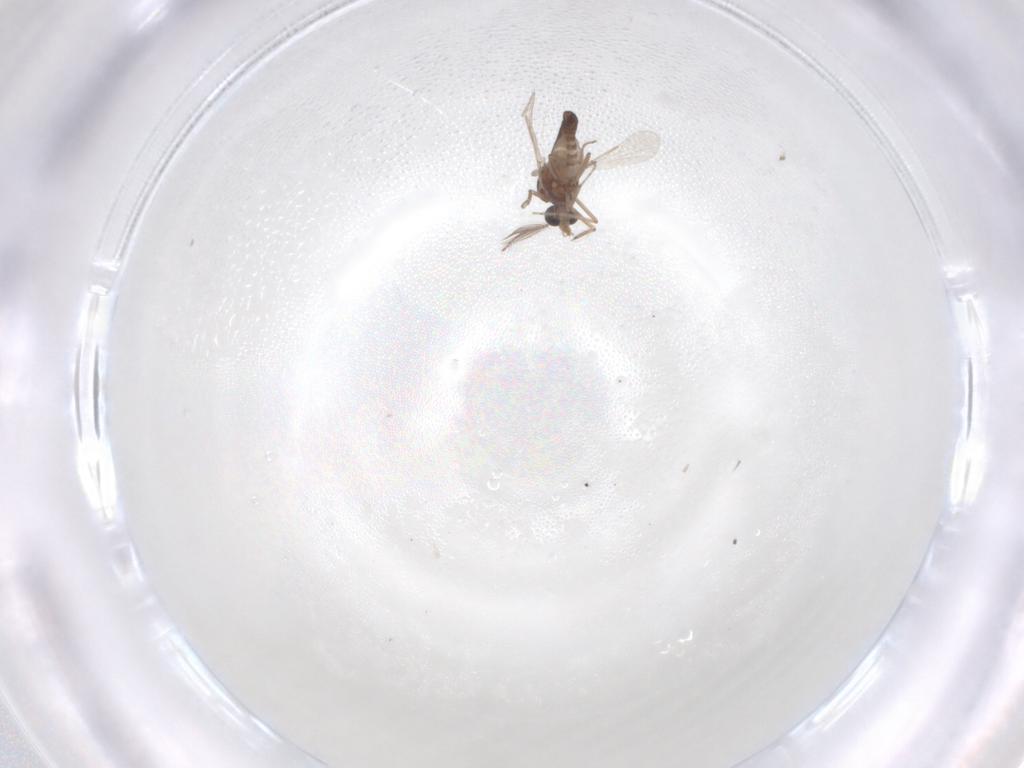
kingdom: Animalia
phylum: Arthropoda
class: Insecta
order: Diptera
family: Ceratopogonidae
